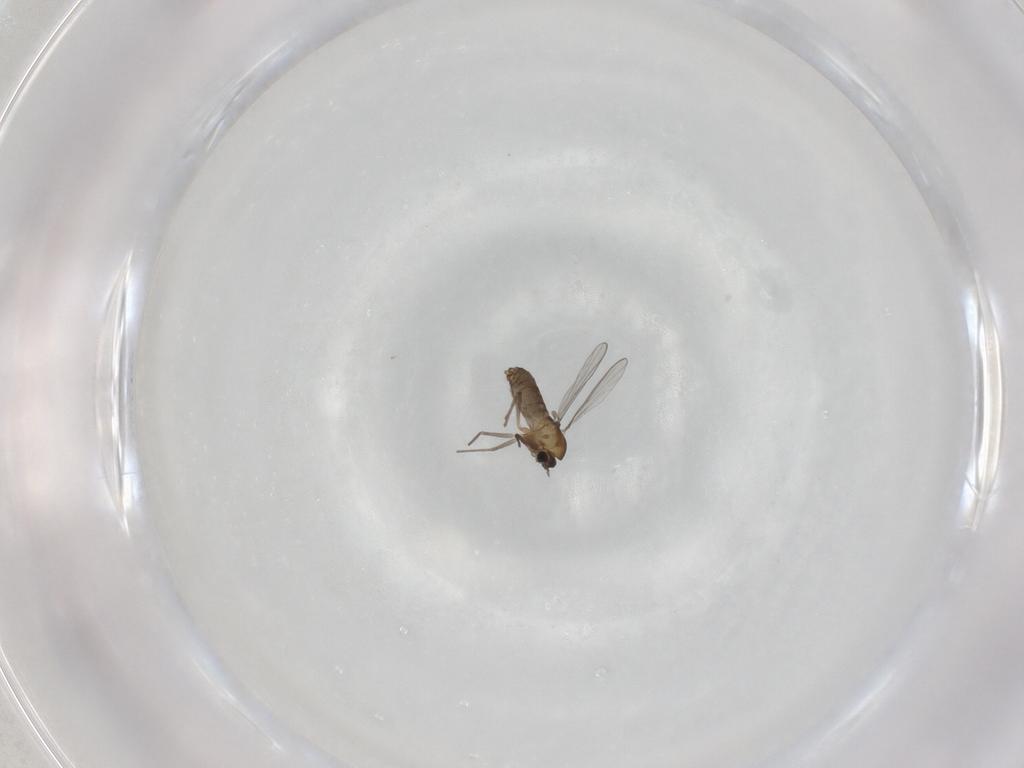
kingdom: Animalia
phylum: Arthropoda
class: Insecta
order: Diptera
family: Chironomidae
